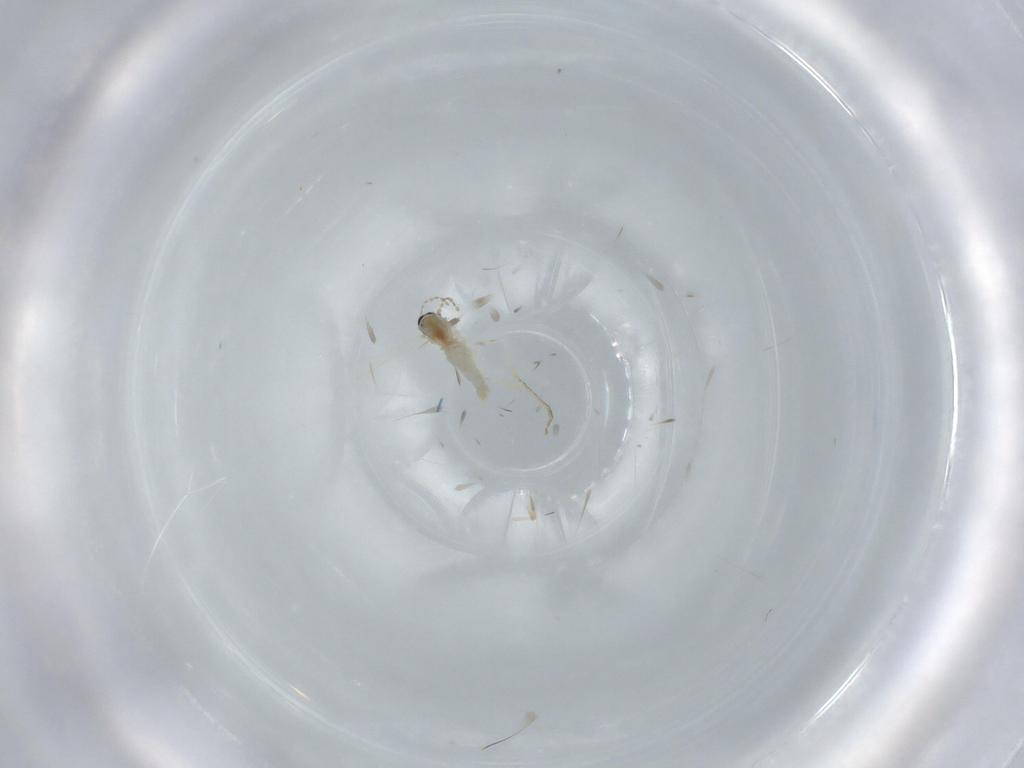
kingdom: Animalia
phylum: Arthropoda
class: Insecta
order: Diptera
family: Cecidomyiidae
